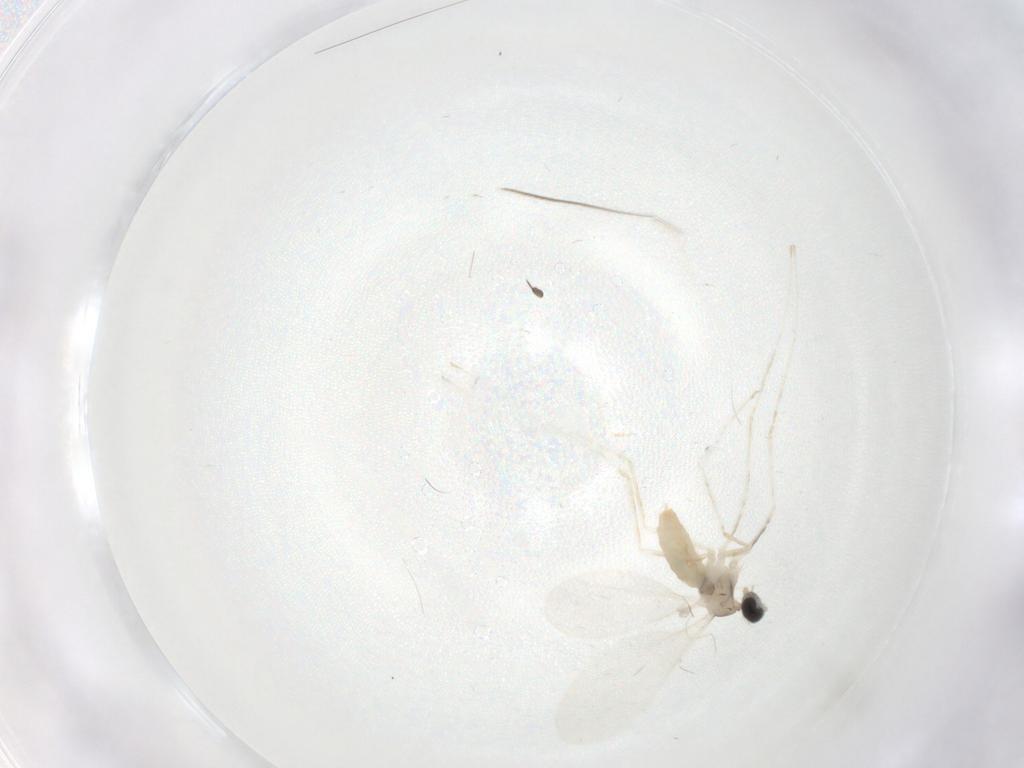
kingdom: Animalia
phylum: Arthropoda
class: Insecta
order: Diptera
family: Cecidomyiidae
